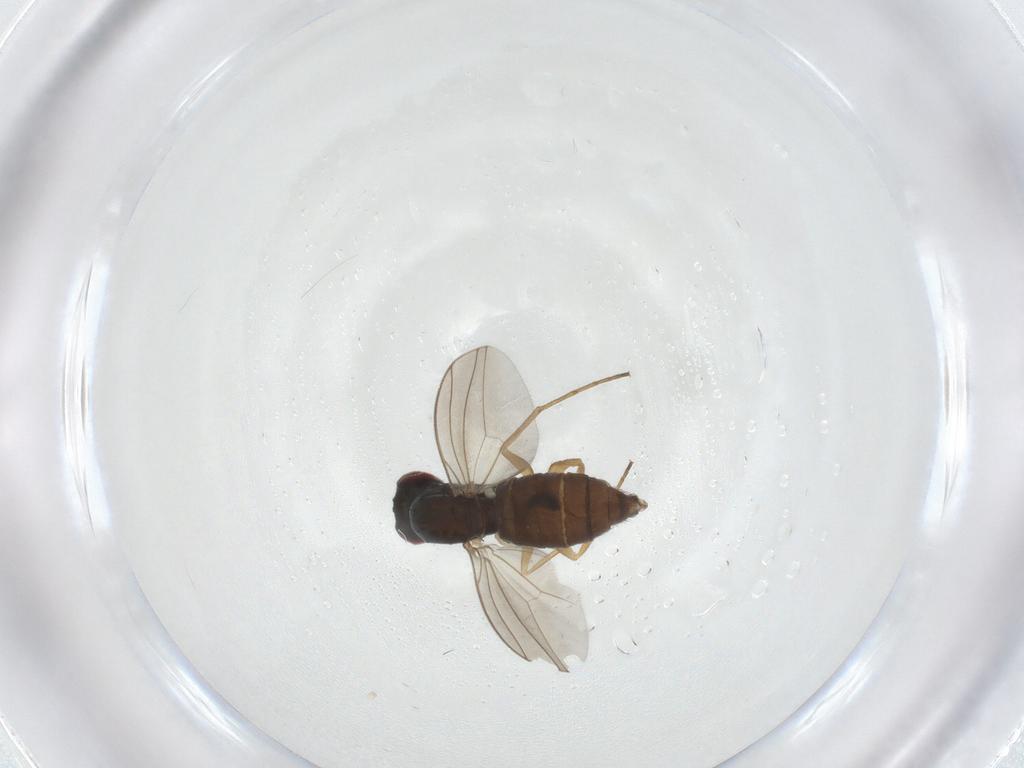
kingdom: Animalia
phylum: Arthropoda
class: Insecta
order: Diptera
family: Dolichopodidae
